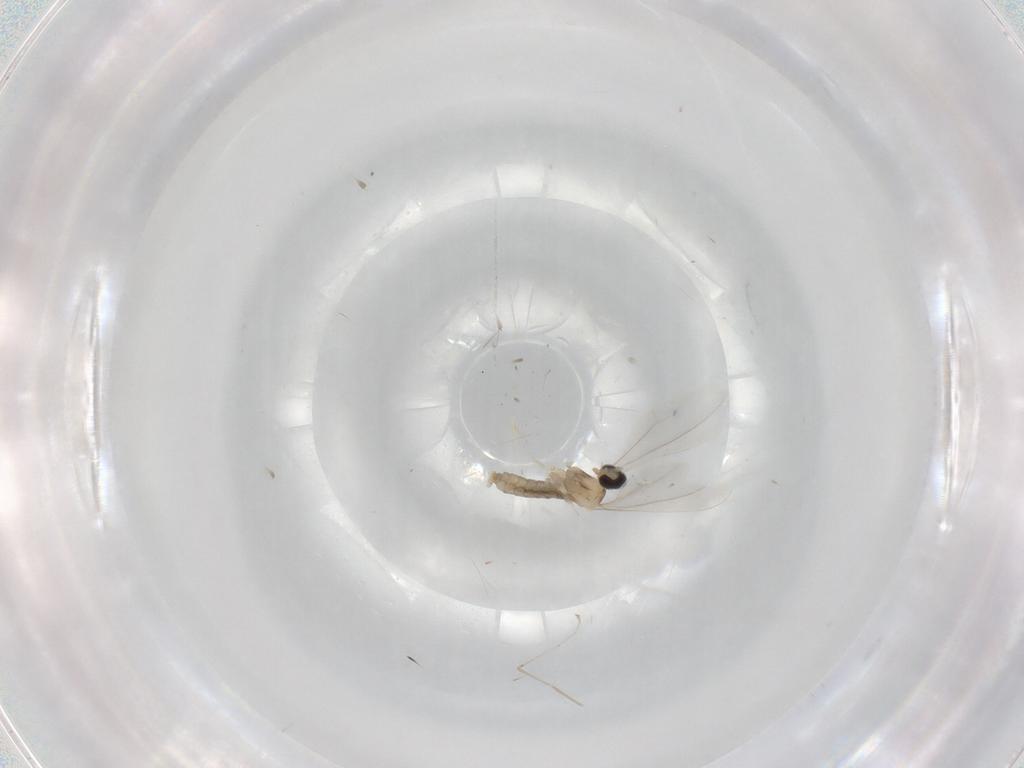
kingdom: Animalia
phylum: Arthropoda
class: Insecta
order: Diptera
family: Cecidomyiidae
